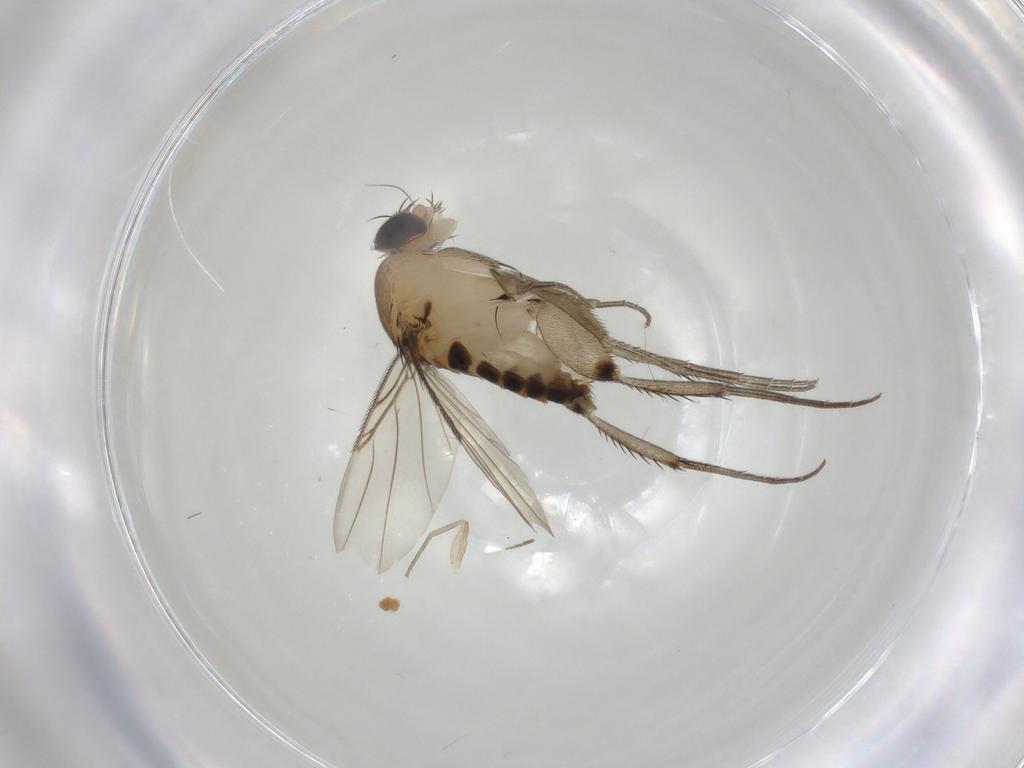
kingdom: Animalia
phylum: Arthropoda
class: Insecta
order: Diptera
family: Phoridae
